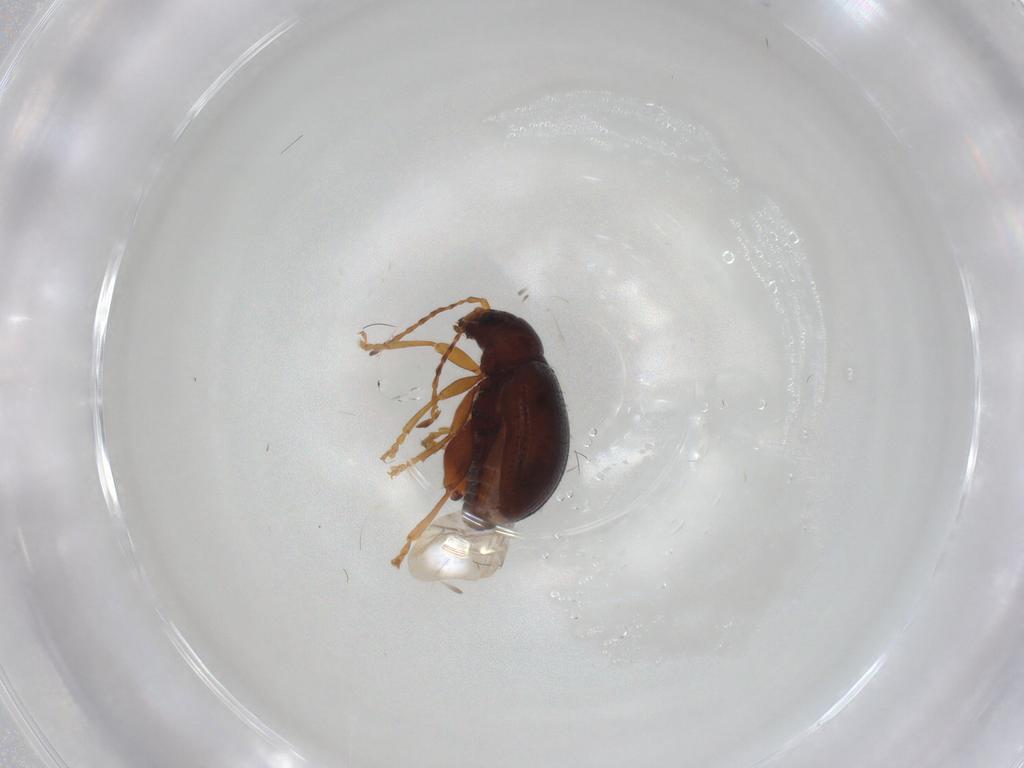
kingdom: Animalia
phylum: Arthropoda
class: Insecta
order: Coleoptera
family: Chrysomelidae
